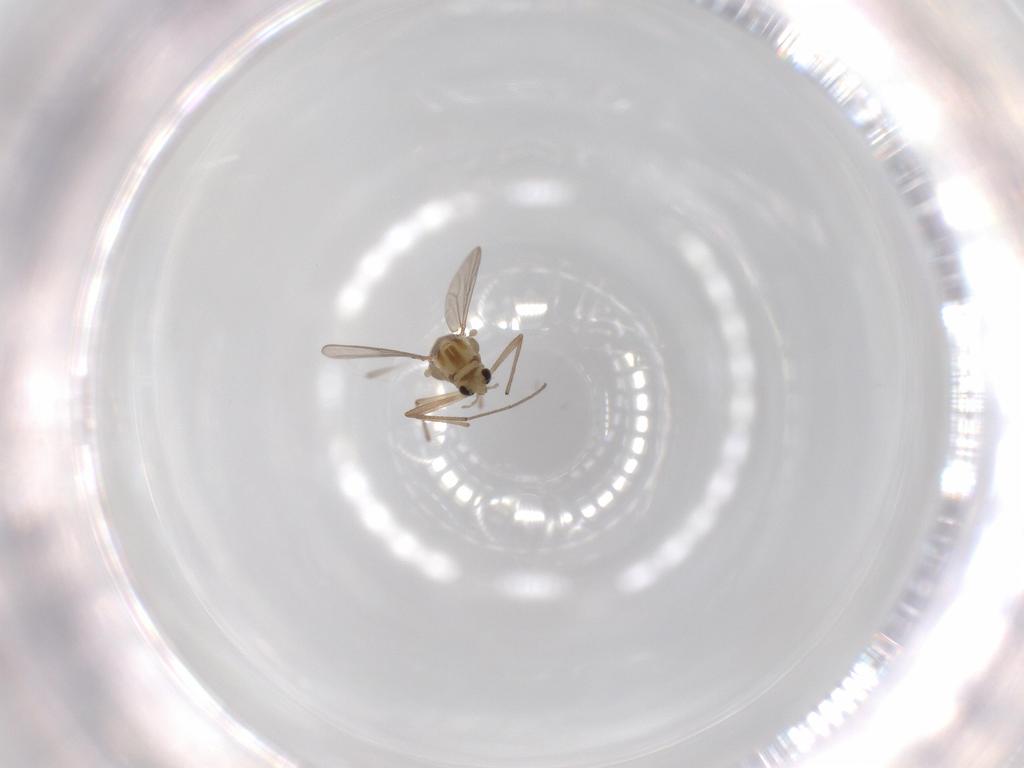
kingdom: Animalia
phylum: Arthropoda
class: Insecta
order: Diptera
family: Chironomidae
